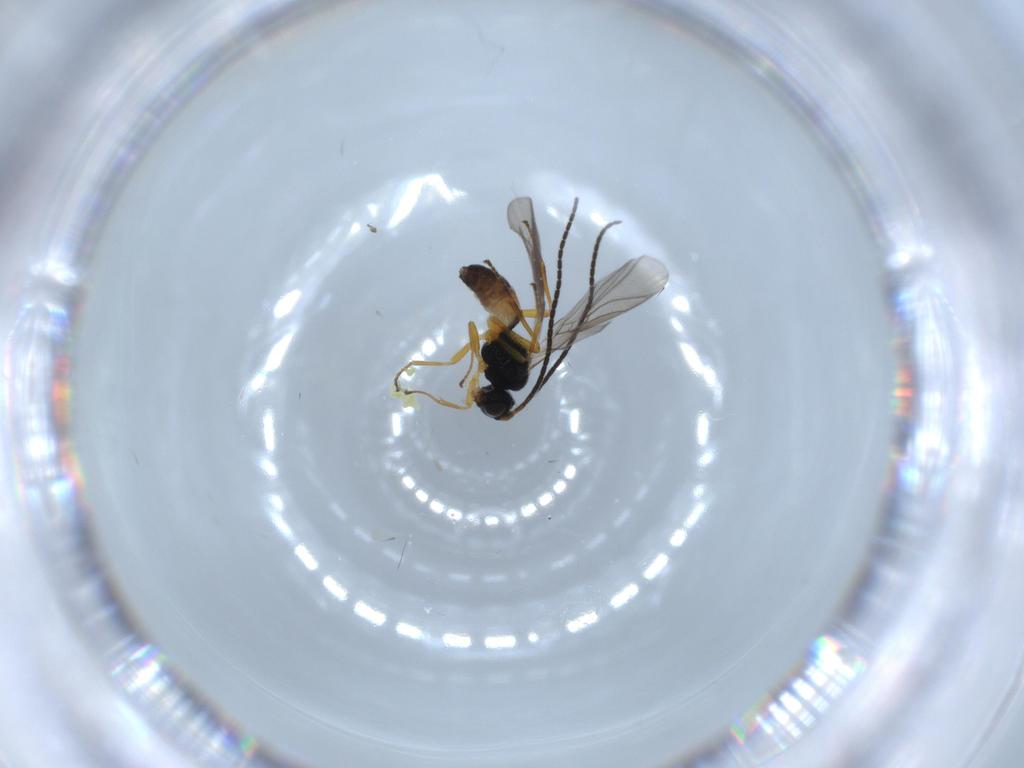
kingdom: Animalia
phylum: Arthropoda
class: Insecta
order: Hymenoptera
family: Braconidae
